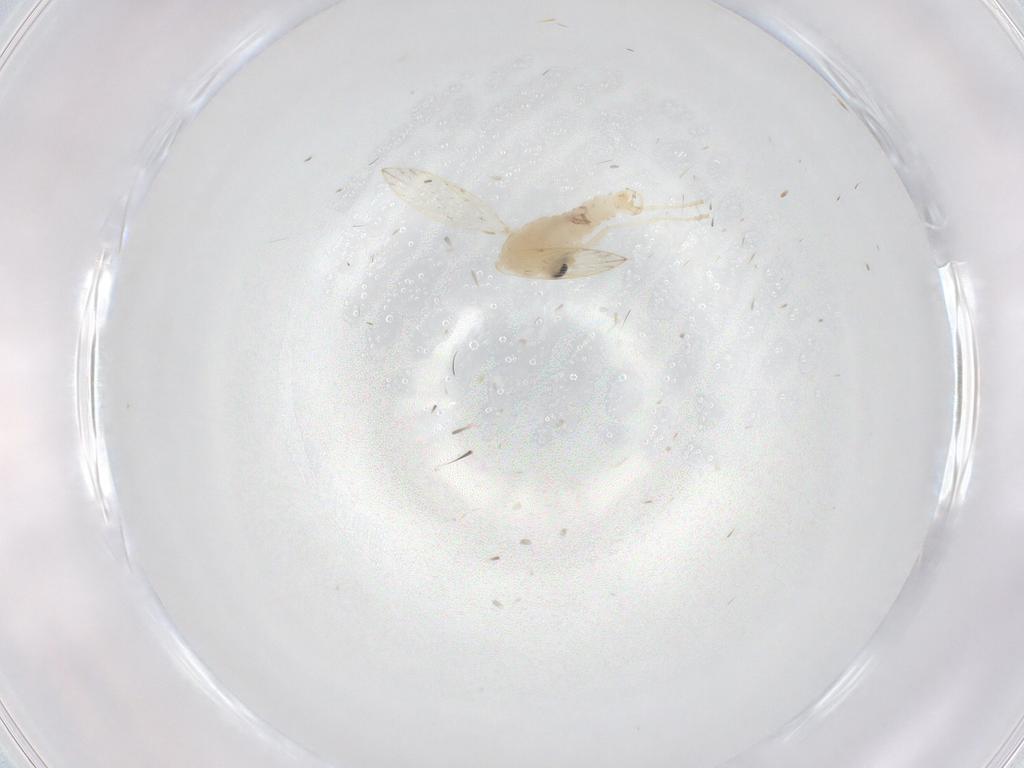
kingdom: Animalia
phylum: Arthropoda
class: Insecta
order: Diptera
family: Psychodidae
